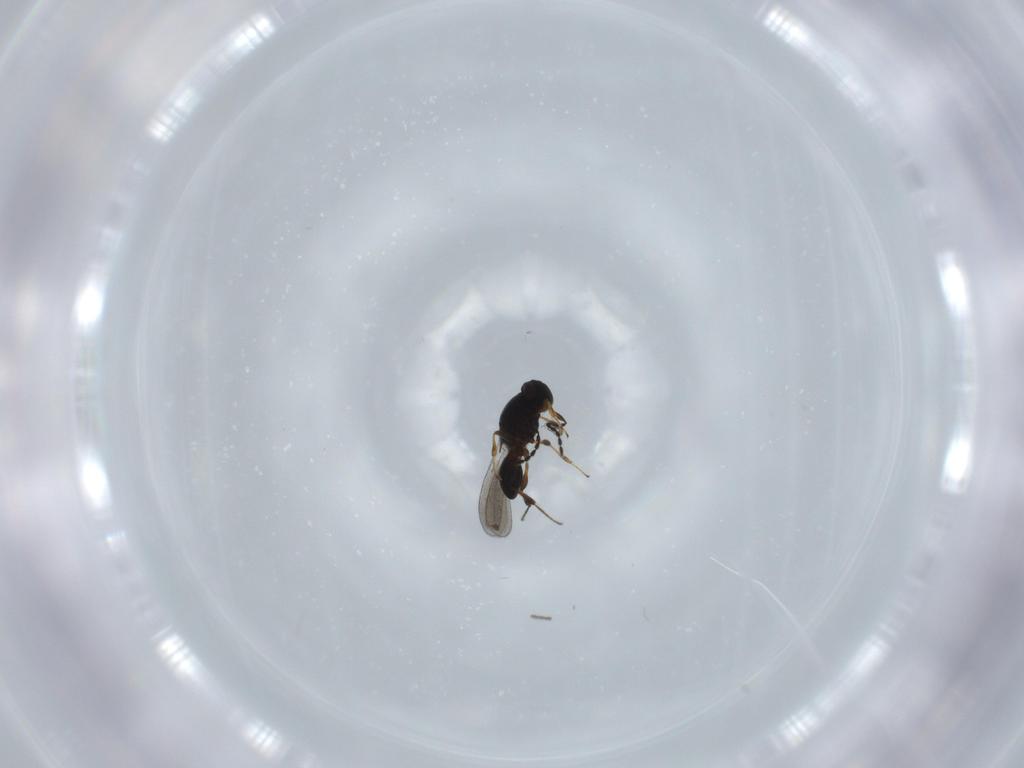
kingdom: Animalia
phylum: Arthropoda
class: Insecta
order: Hymenoptera
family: Platygastridae
